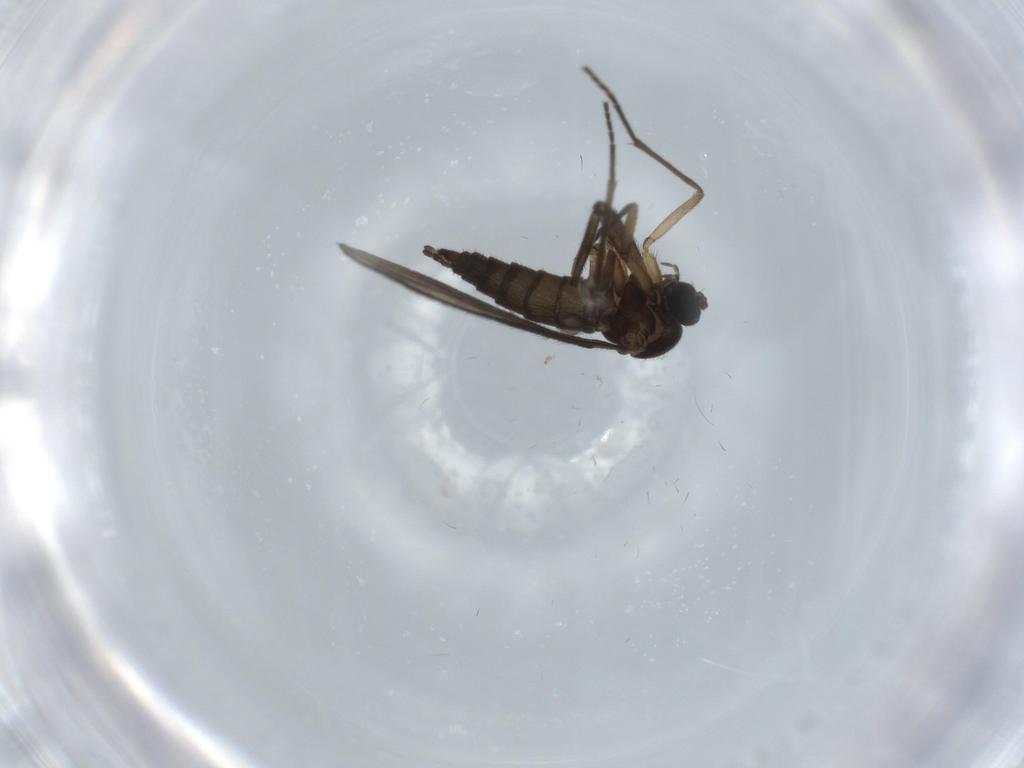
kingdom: Animalia
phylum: Arthropoda
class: Insecta
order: Diptera
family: Sciaridae
